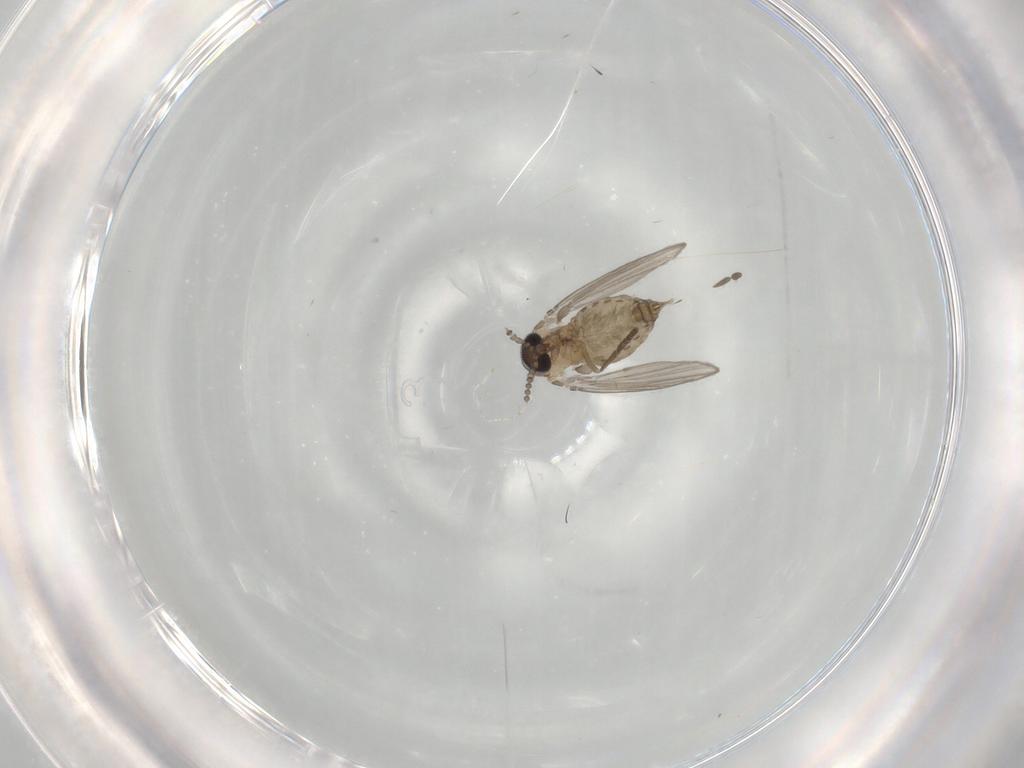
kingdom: Animalia
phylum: Arthropoda
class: Insecta
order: Diptera
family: Psychodidae
